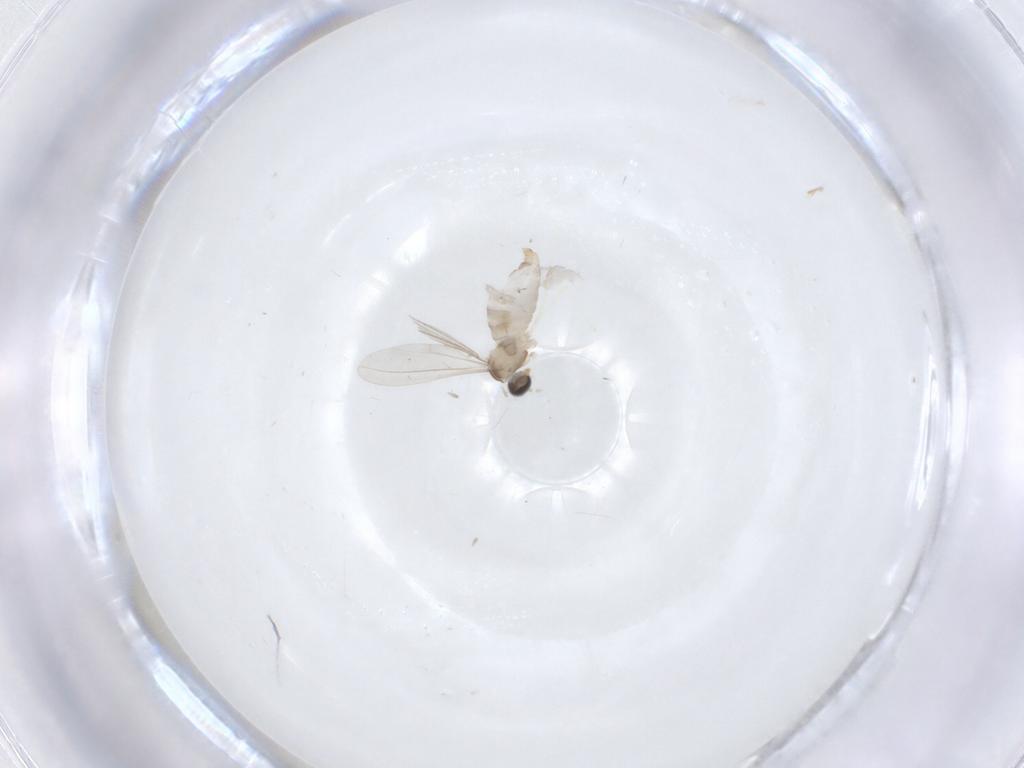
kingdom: Animalia
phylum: Arthropoda
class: Insecta
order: Diptera
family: Cecidomyiidae
